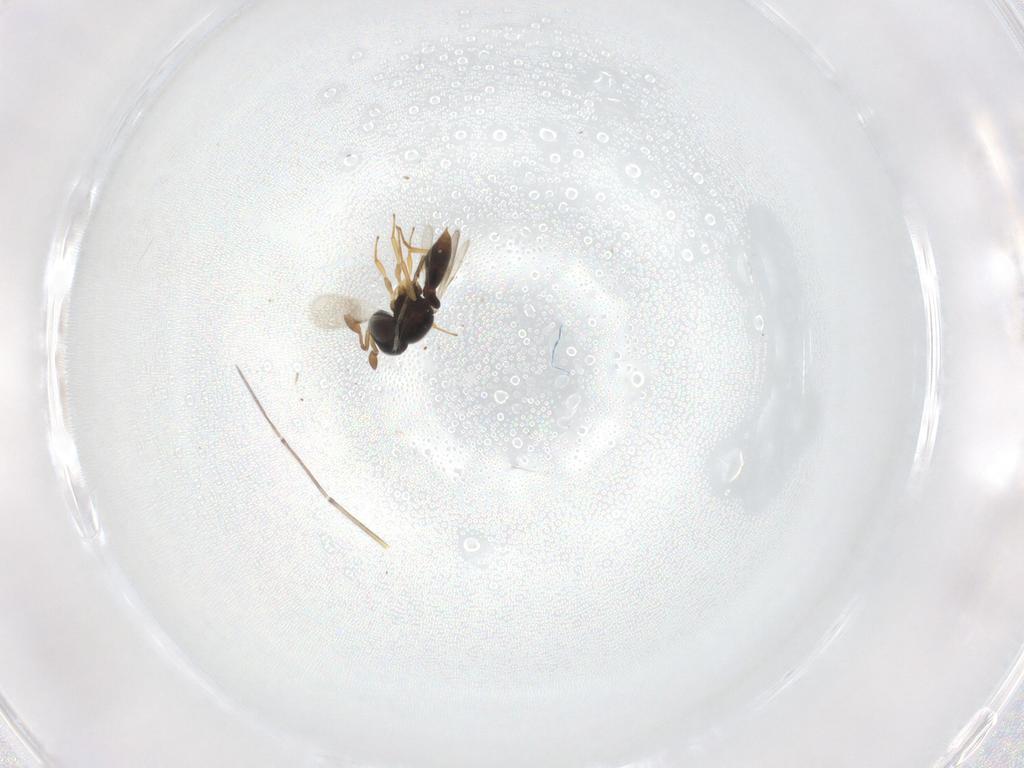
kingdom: Animalia
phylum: Arthropoda
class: Insecta
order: Hymenoptera
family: Scelionidae
